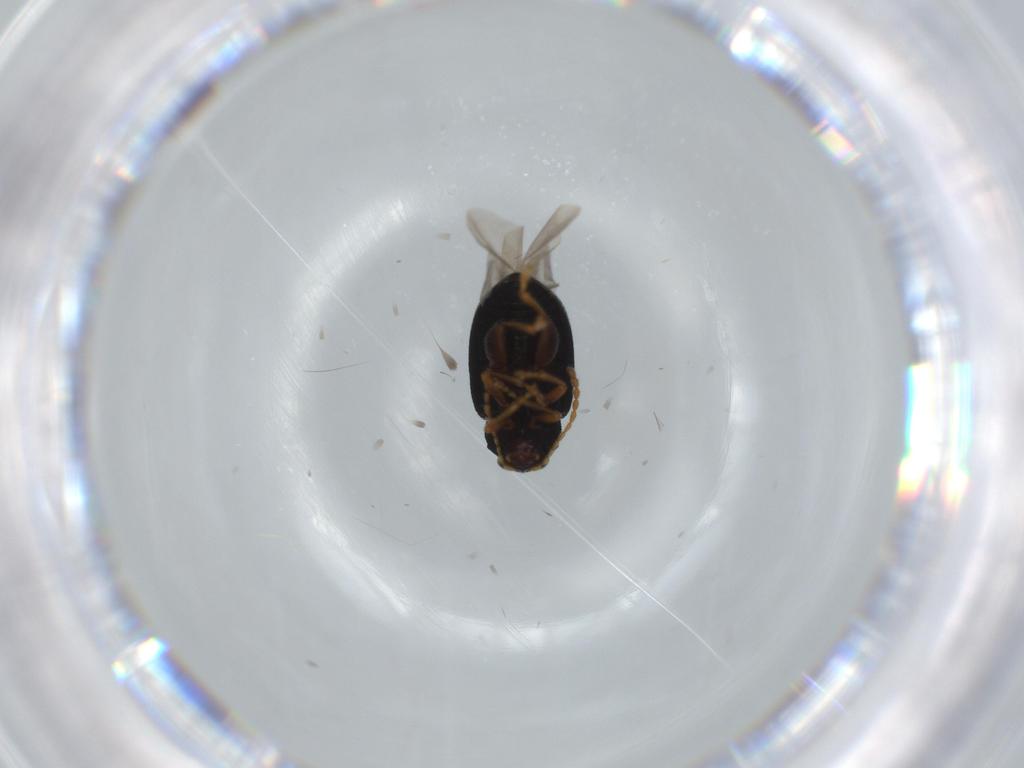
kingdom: Animalia
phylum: Arthropoda
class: Insecta
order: Coleoptera
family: Chrysomelidae
